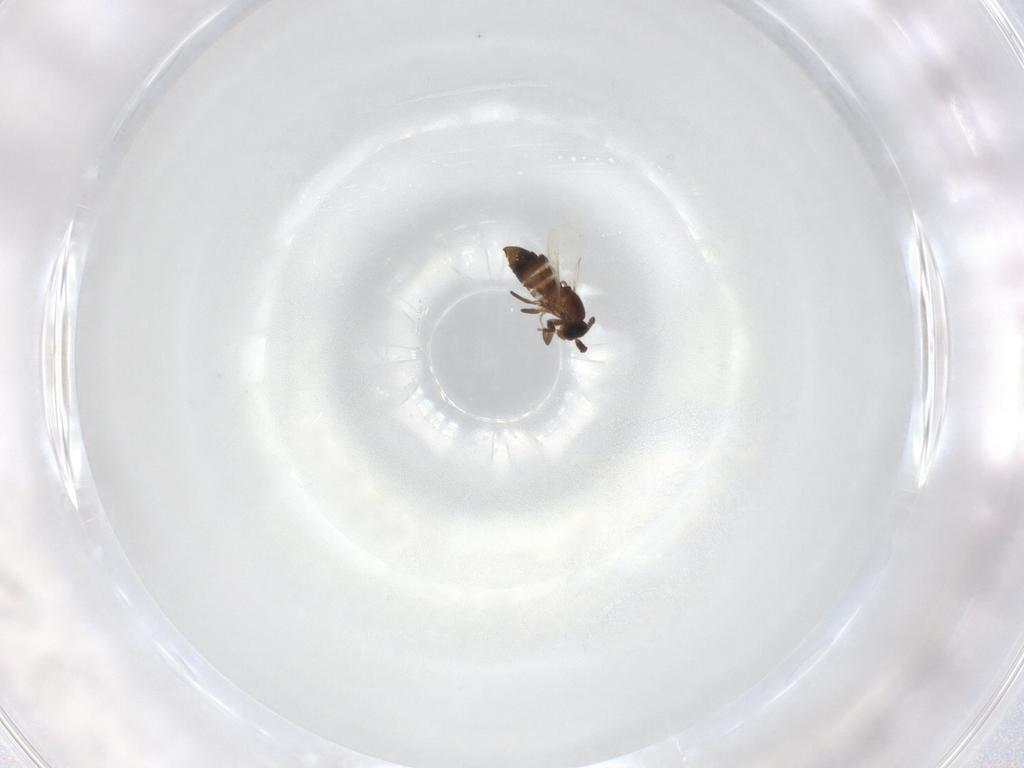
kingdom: Animalia
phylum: Arthropoda
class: Insecta
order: Diptera
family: Scatopsidae
